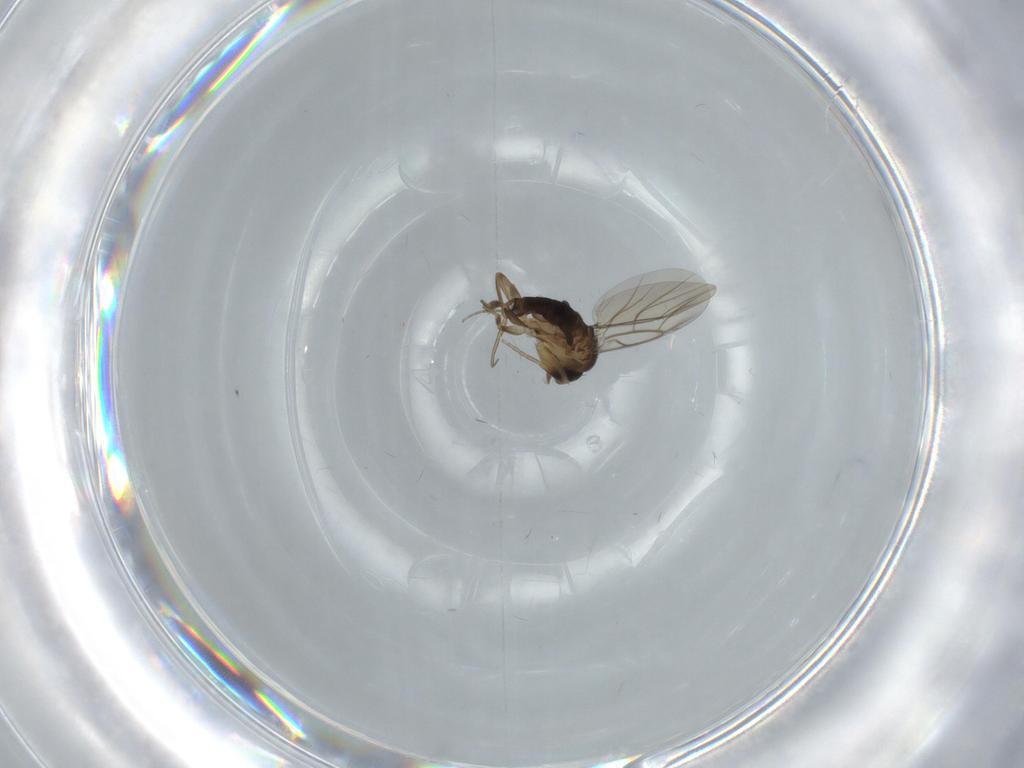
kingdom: Animalia
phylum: Arthropoda
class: Insecta
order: Diptera
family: Phoridae
